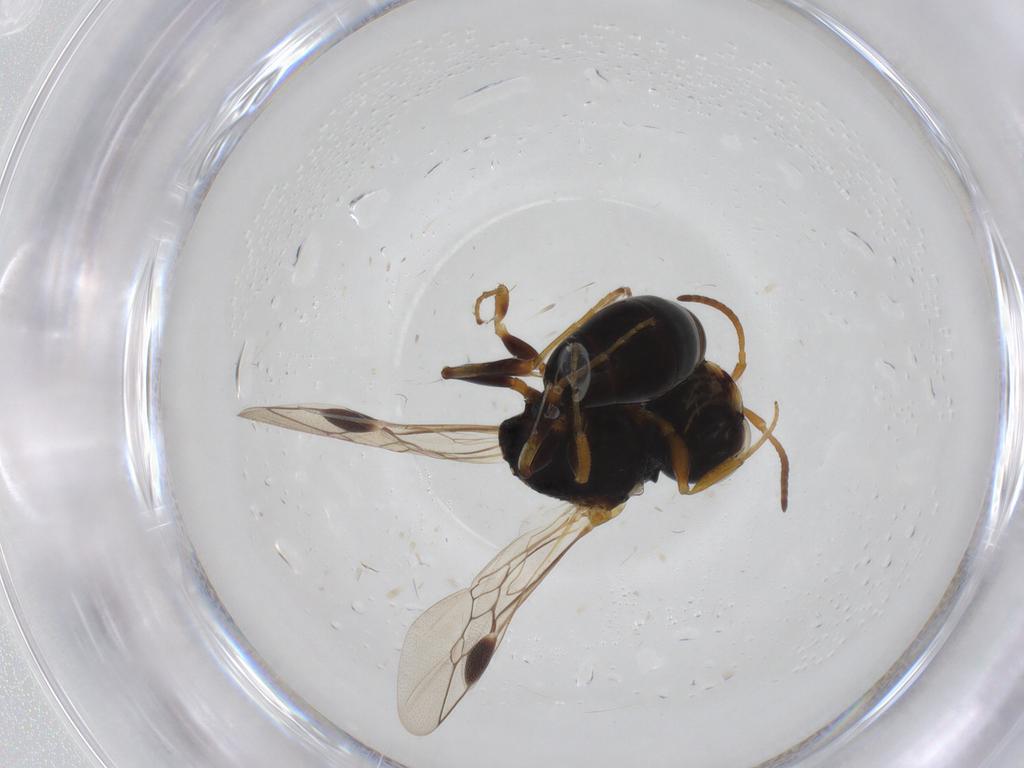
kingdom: Animalia
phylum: Arthropoda
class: Insecta
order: Hymenoptera
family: Pemphredonidae
